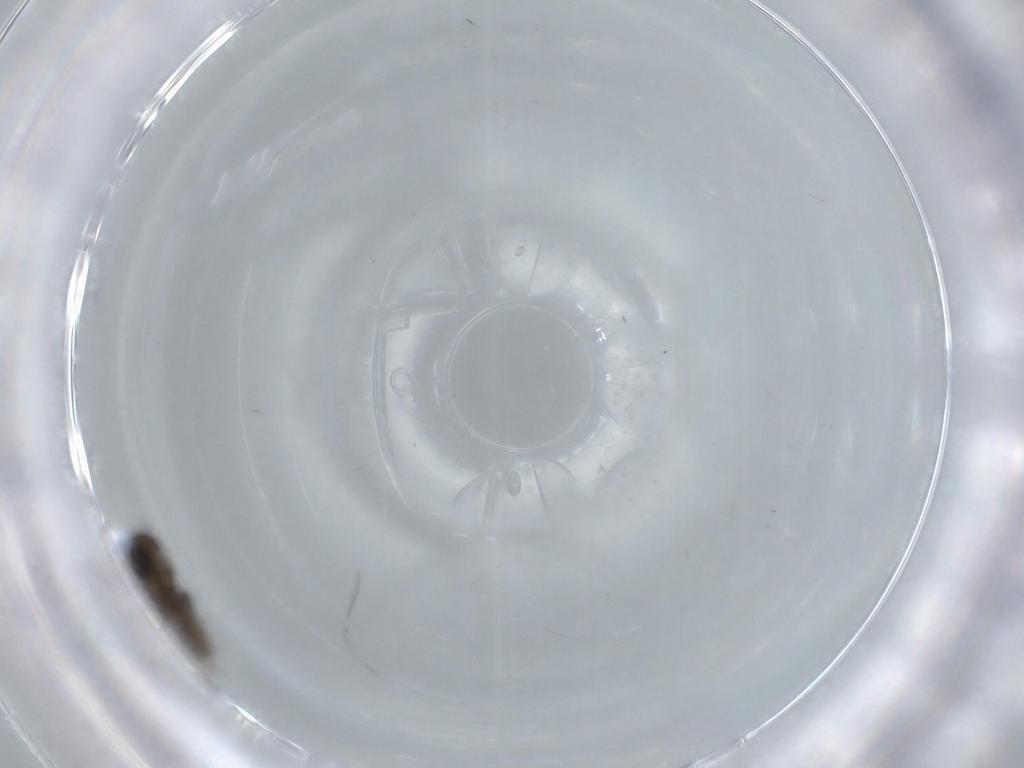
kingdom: Animalia
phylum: Arthropoda
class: Insecta
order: Diptera
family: Psychodidae
